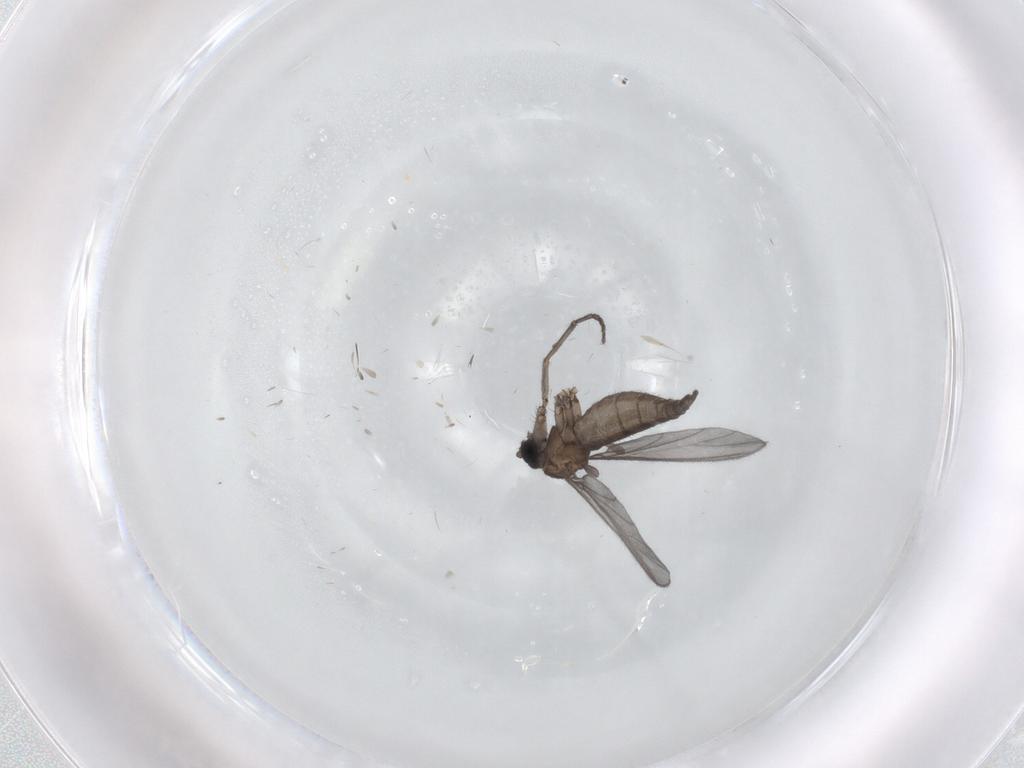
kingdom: Animalia
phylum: Arthropoda
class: Insecta
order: Diptera
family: Sciaridae
